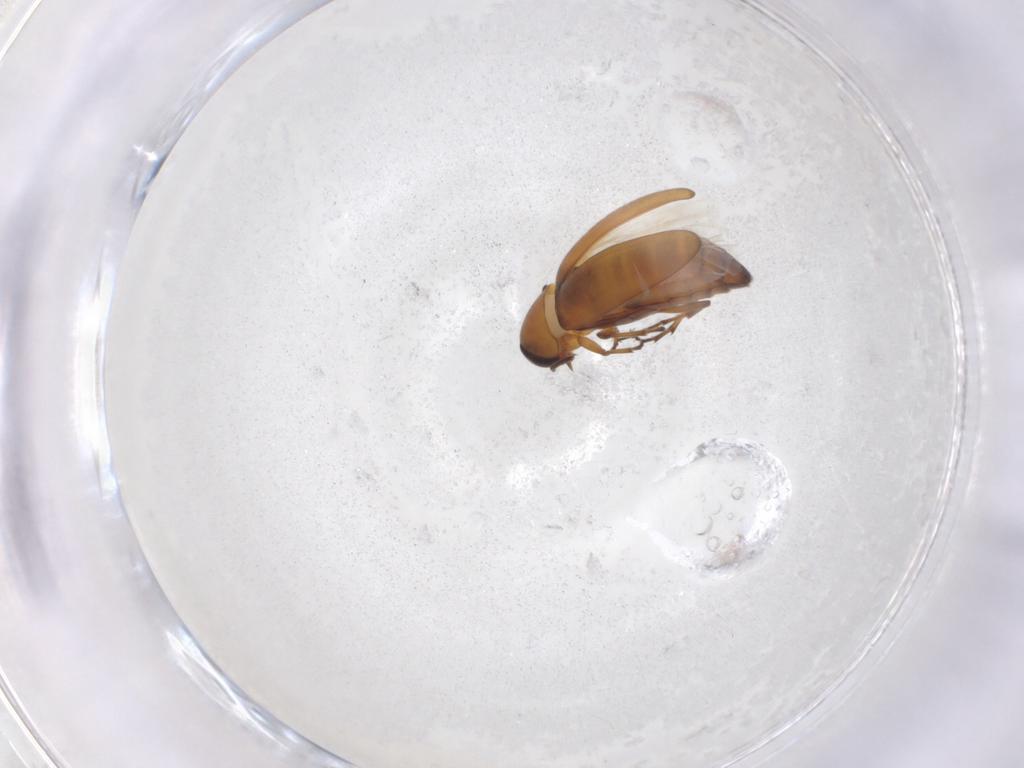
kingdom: Animalia
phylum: Arthropoda
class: Insecta
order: Coleoptera
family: Scraptiidae
